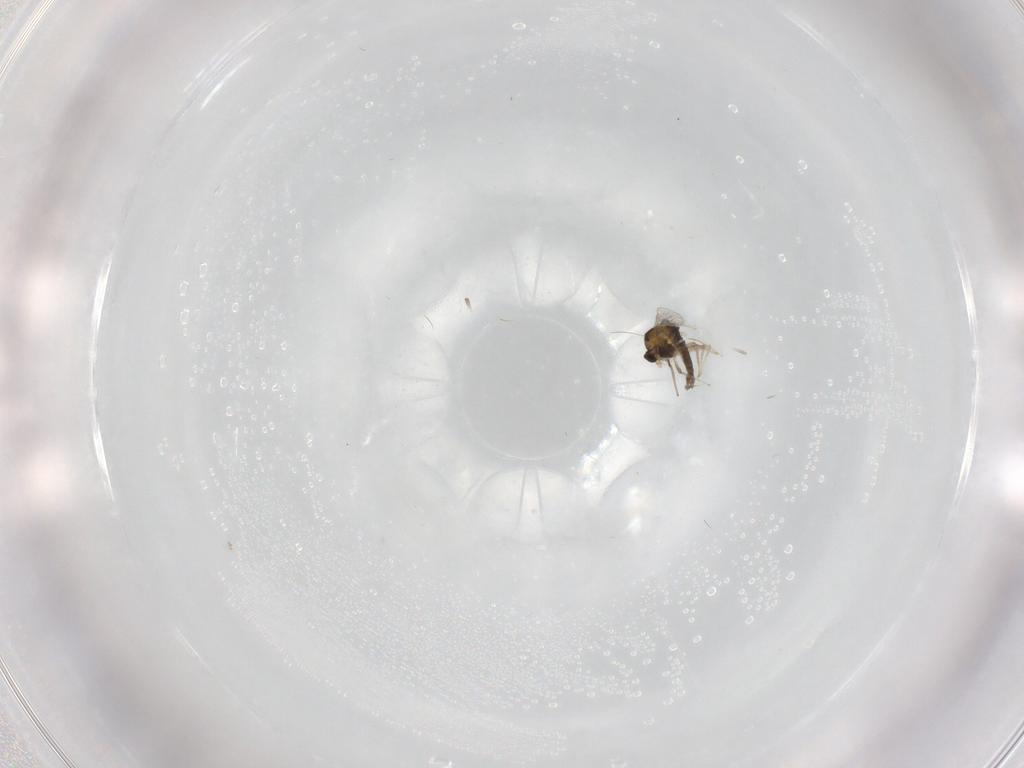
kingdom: Animalia
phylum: Arthropoda
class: Insecta
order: Diptera
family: Chironomidae
